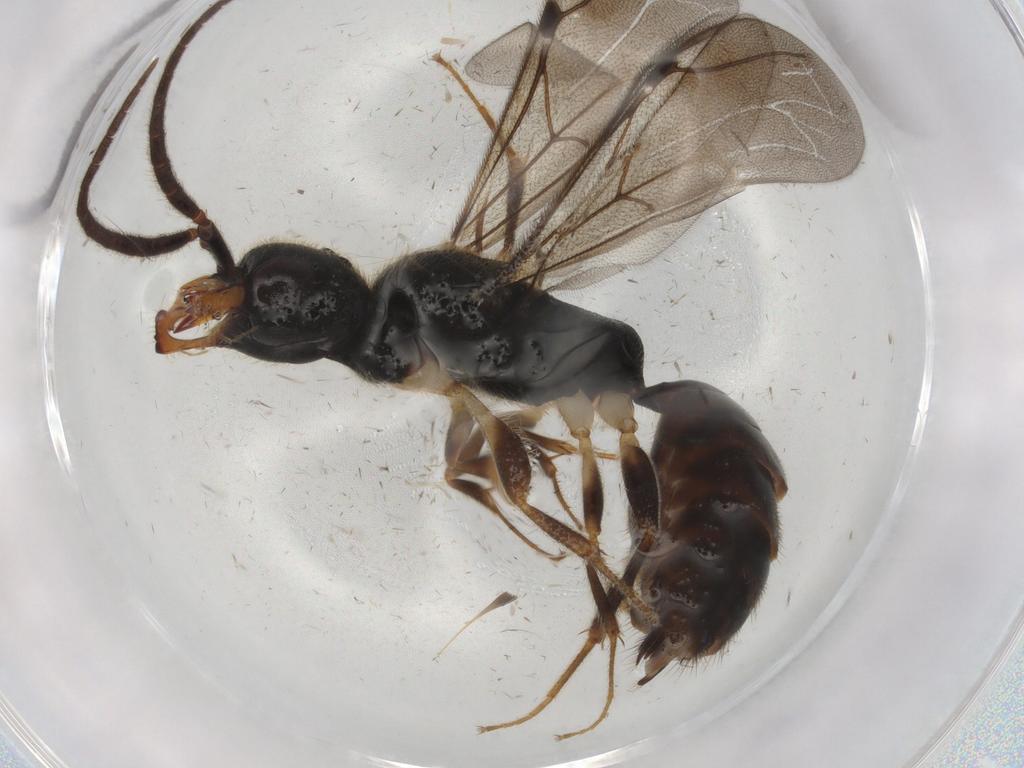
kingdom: Animalia
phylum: Arthropoda
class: Insecta
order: Hymenoptera
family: Bethylidae
